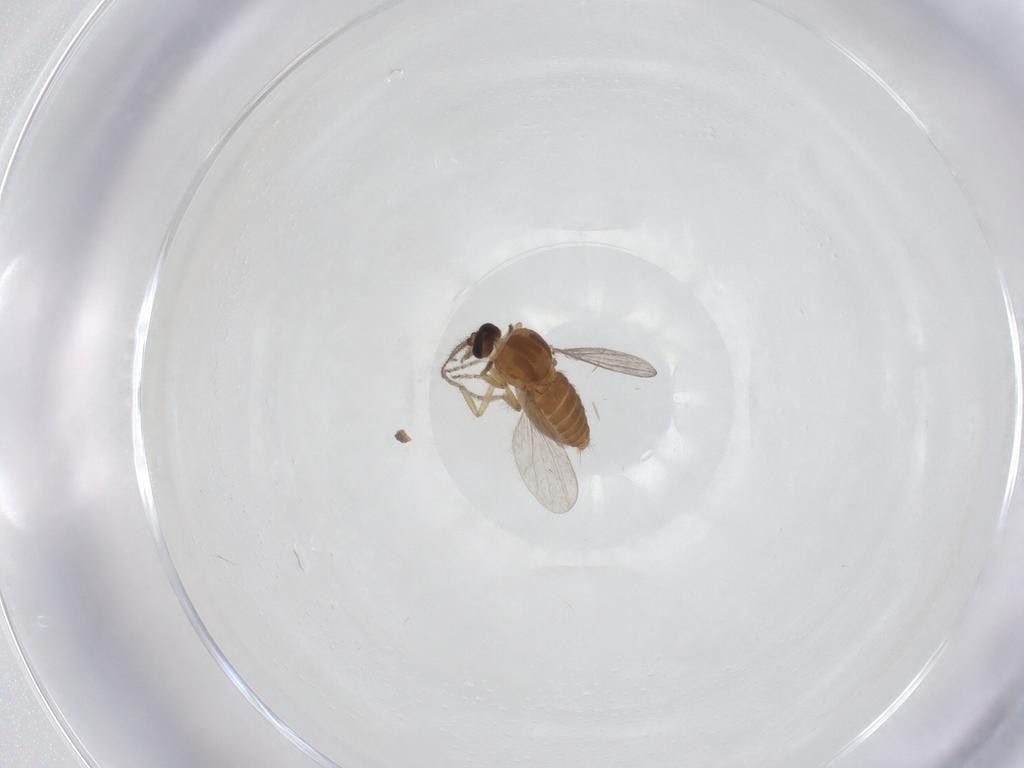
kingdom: Animalia
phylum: Arthropoda
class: Insecta
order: Diptera
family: Ceratopogonidae
